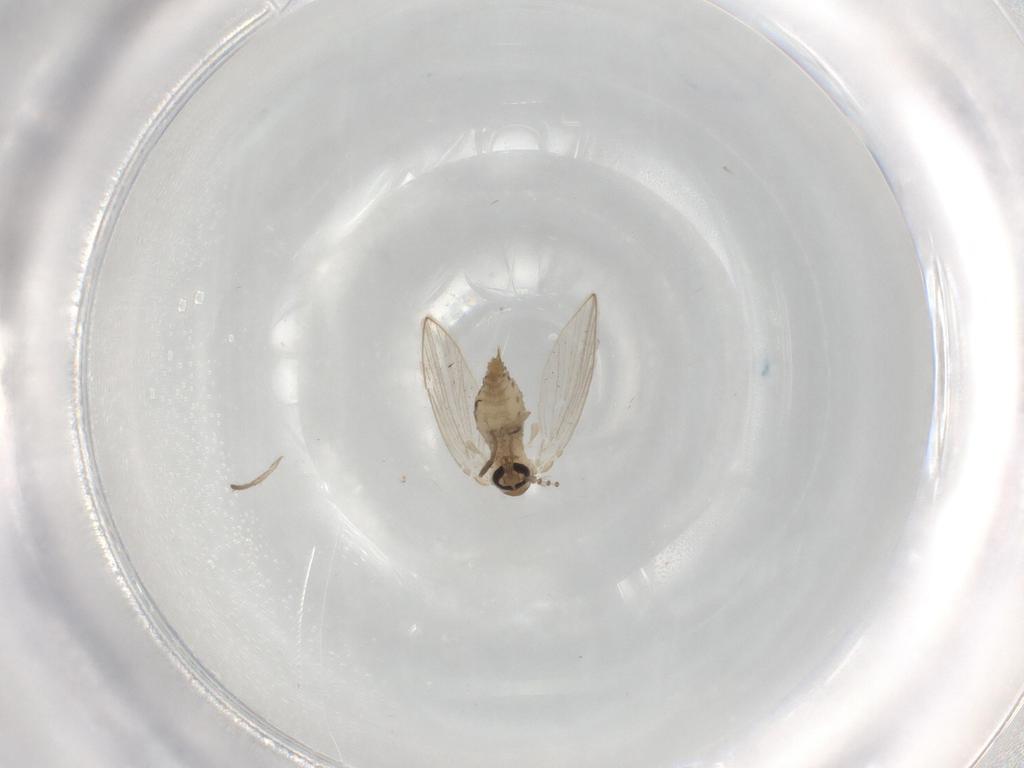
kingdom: Animalia
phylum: Arthropoda
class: Insecta
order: Diptera
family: Psychodidae
